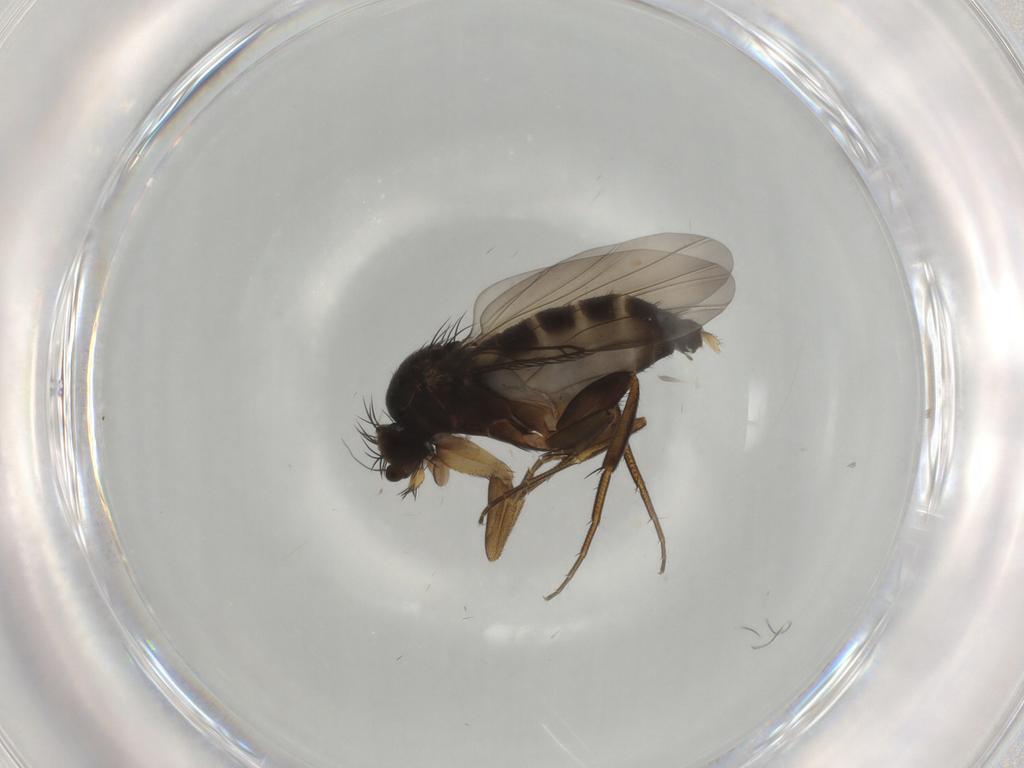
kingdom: Animalia
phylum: Arthropoda
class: Insecta
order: Diptera
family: Phoridae
